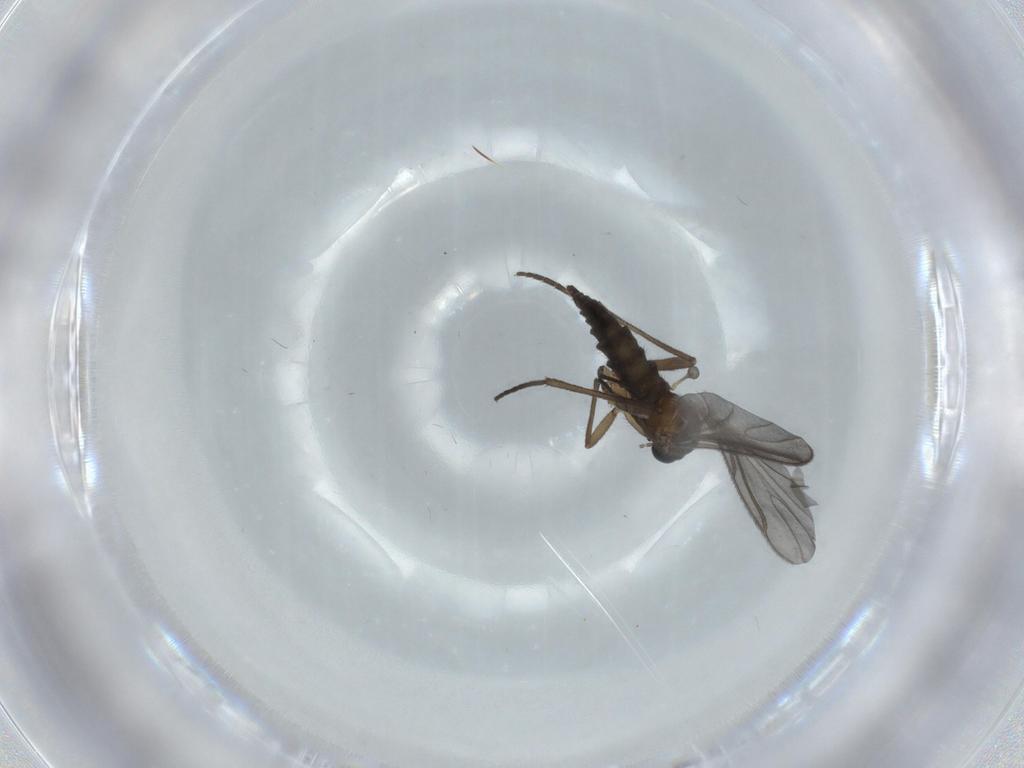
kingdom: Animalia
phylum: Arthropoda
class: Insecta
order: Diptera
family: Sciaridae
